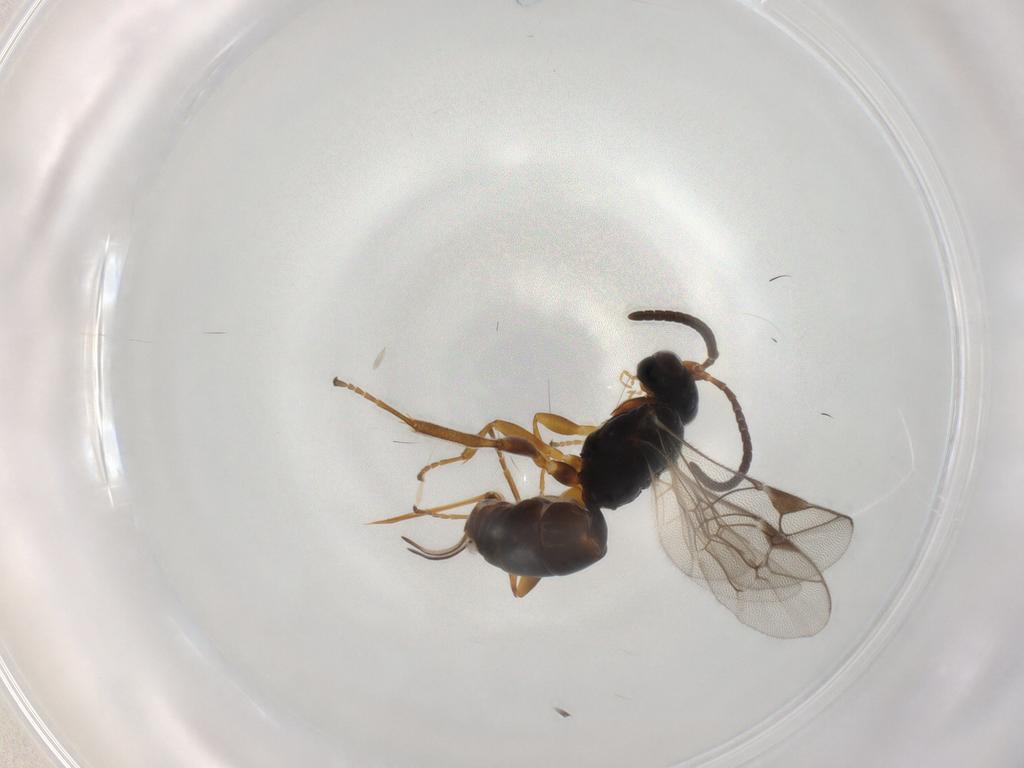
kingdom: Animalia
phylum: Arthropoda
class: Insecta
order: Hymenoptera
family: Ichneumonidae
